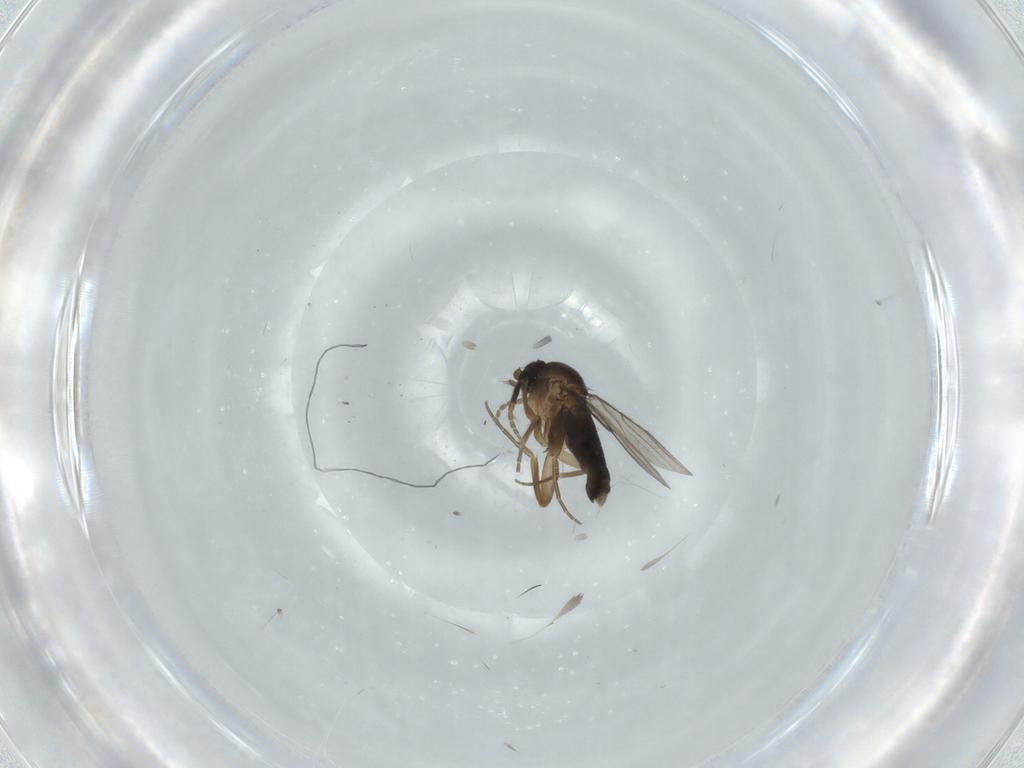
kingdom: Animalia
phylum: Arthropoda
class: Insecta
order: Diptera
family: Phoridae
